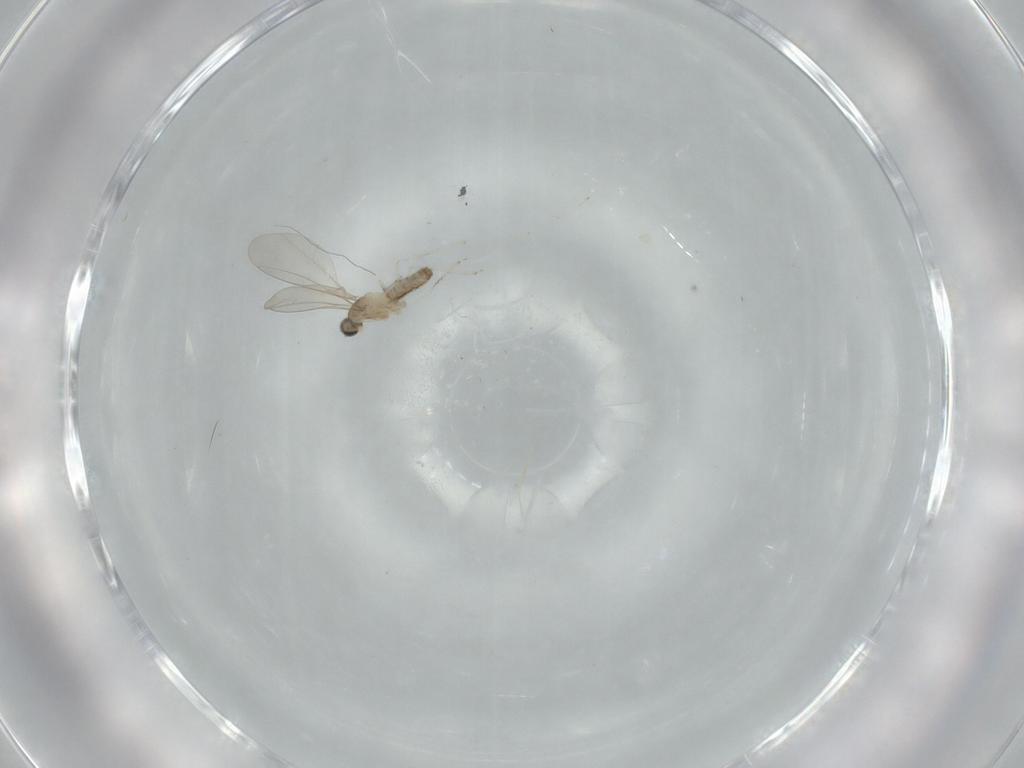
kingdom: Animalia
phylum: Arthropoda
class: Insecta
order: Diptera
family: Cecidomyiidae
